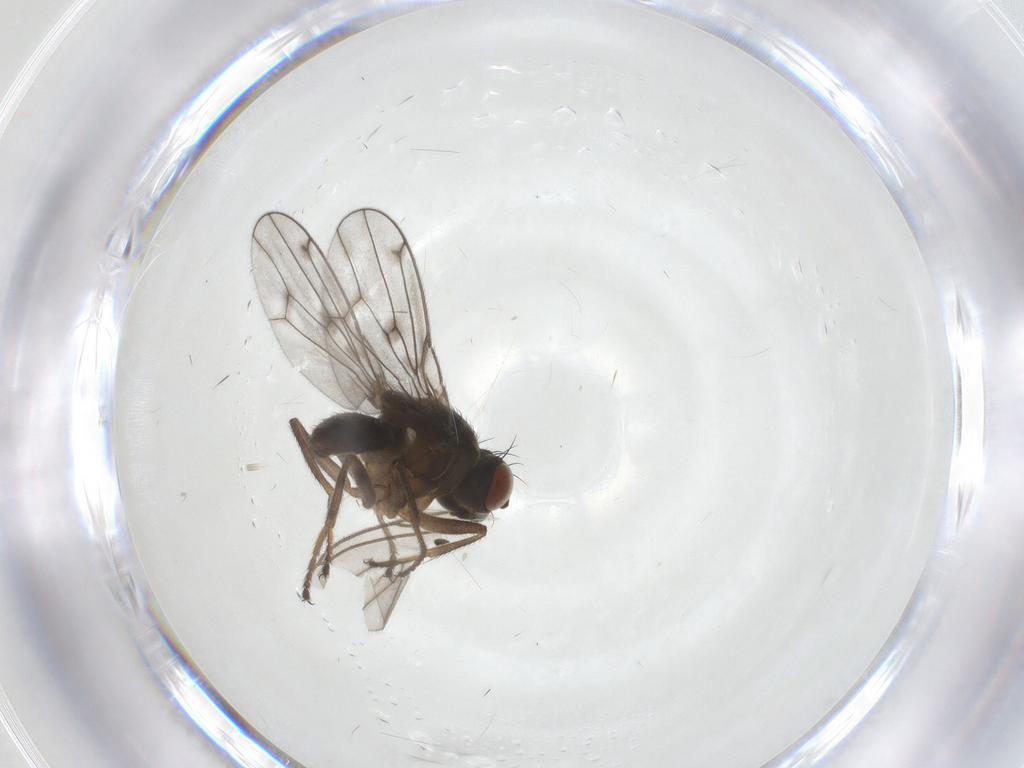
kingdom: Animalia
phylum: Arthropoda
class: Insecta
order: Diptera
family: Ephydridae
